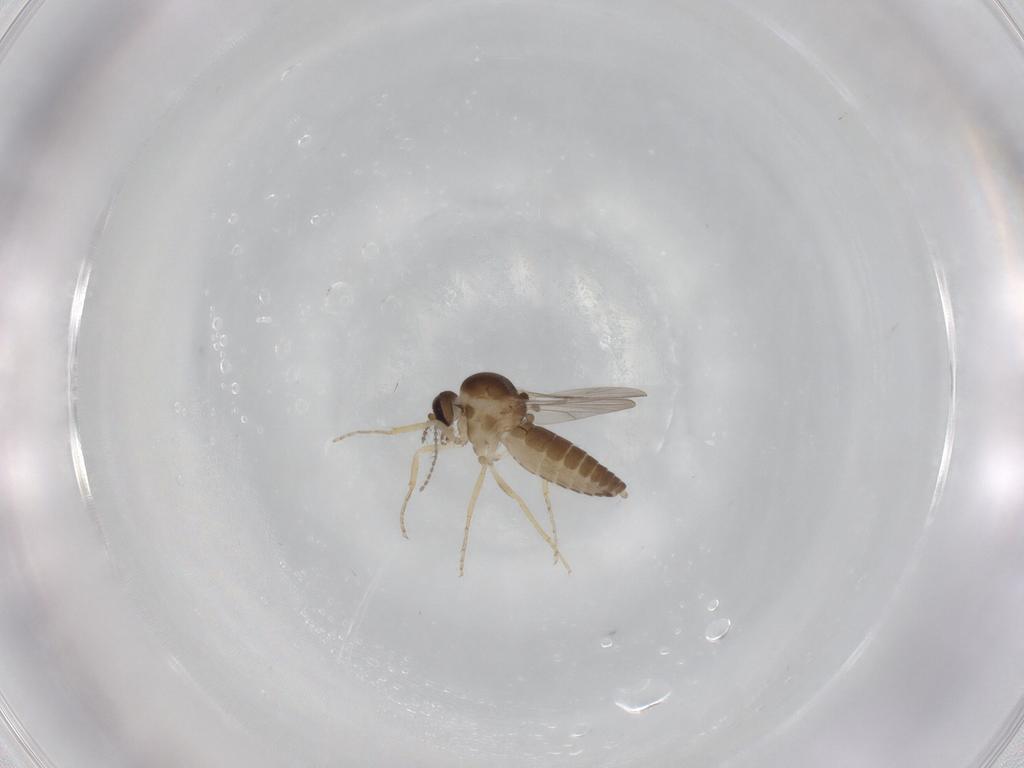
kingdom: Animalia
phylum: Arthropoda
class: Insecta
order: Diptera
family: Ceratopogonidae
